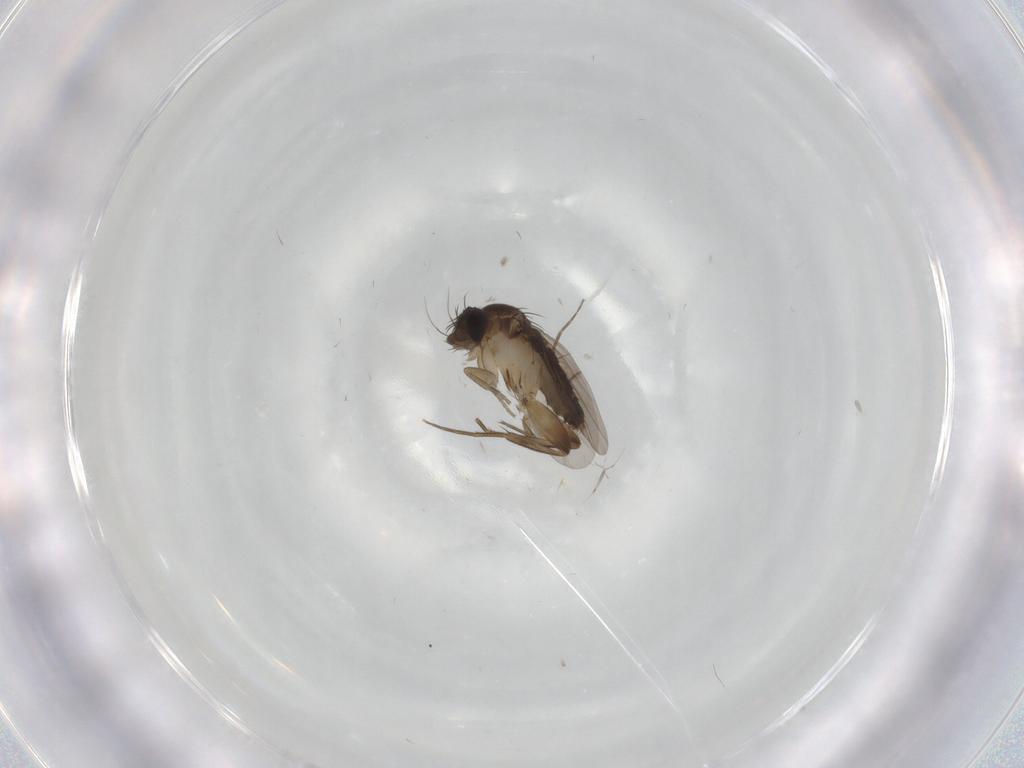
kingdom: Animalia
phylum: Arthropoda
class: Insecta
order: Diptera
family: Phoridae
